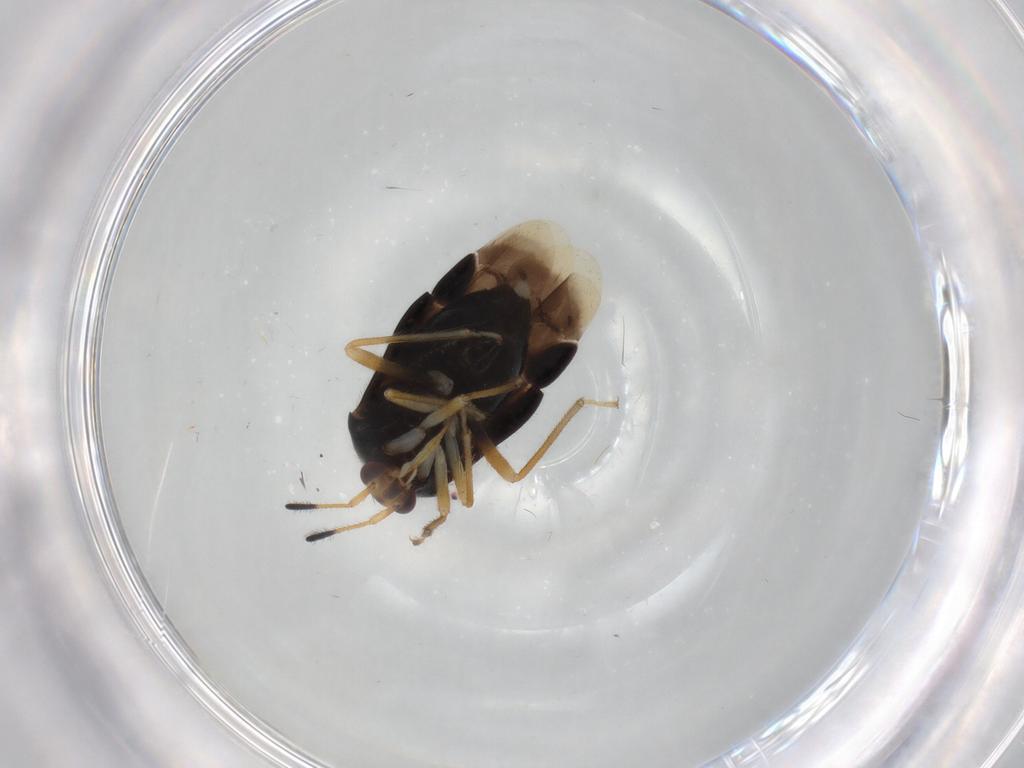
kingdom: Animalia
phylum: Arthropoda
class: Insecta
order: Hemiptera
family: Miridae
